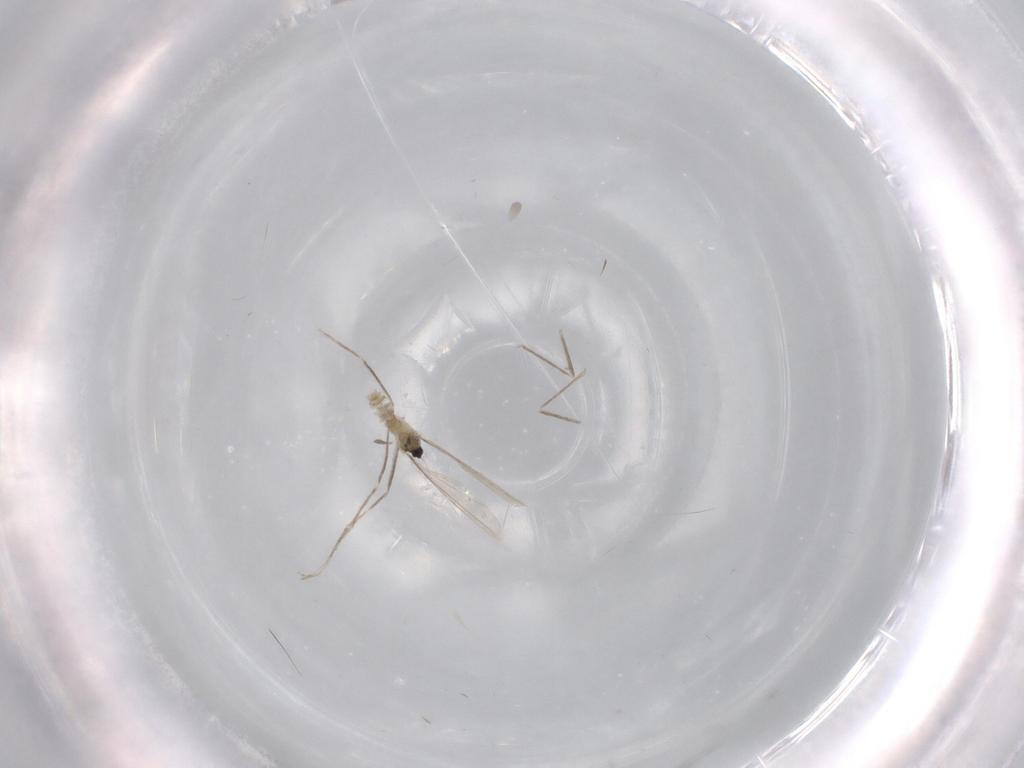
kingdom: Animalia
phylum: Arthropoda
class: Insecta
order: Diptera
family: Cecidomyiidae
